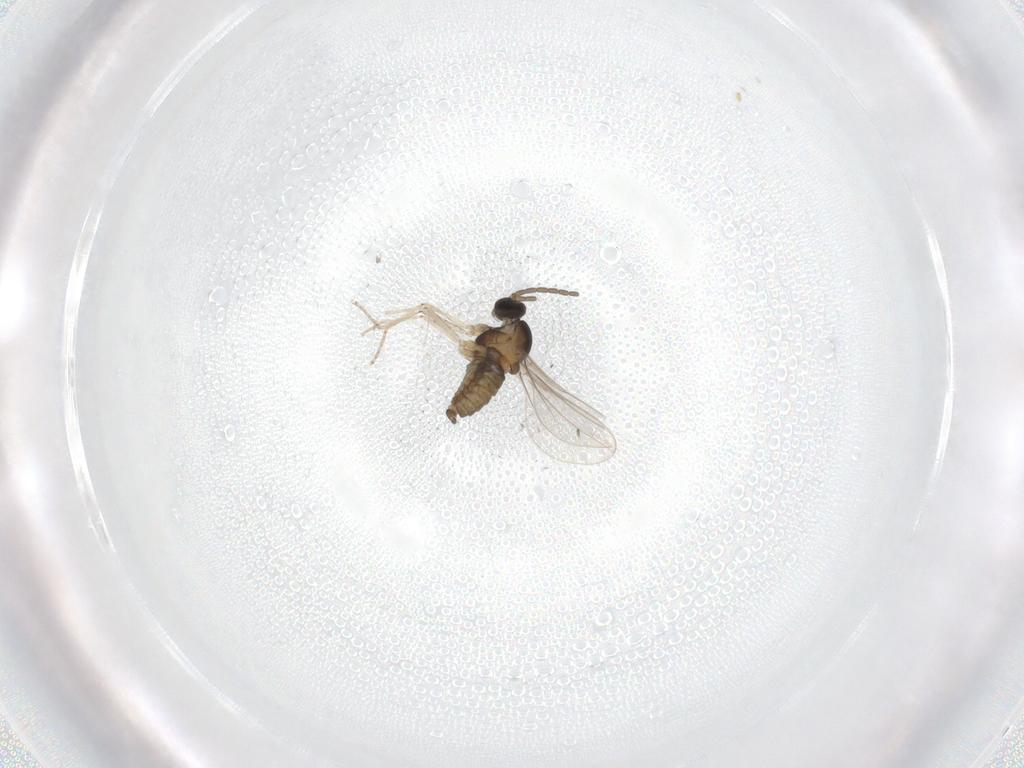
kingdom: Animalia
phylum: Arthropoda
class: Insecta
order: Diptera
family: Cecidomyiidae
